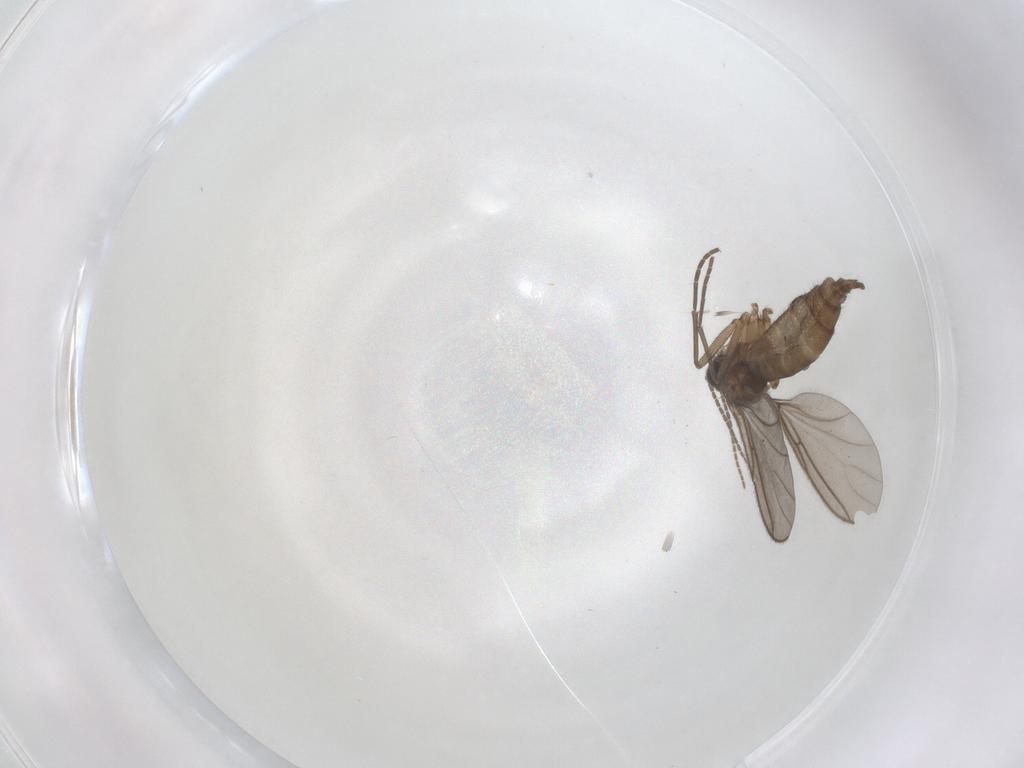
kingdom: Animalia
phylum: Arthropoda
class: Insecta
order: Diptera
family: Sciaridae
